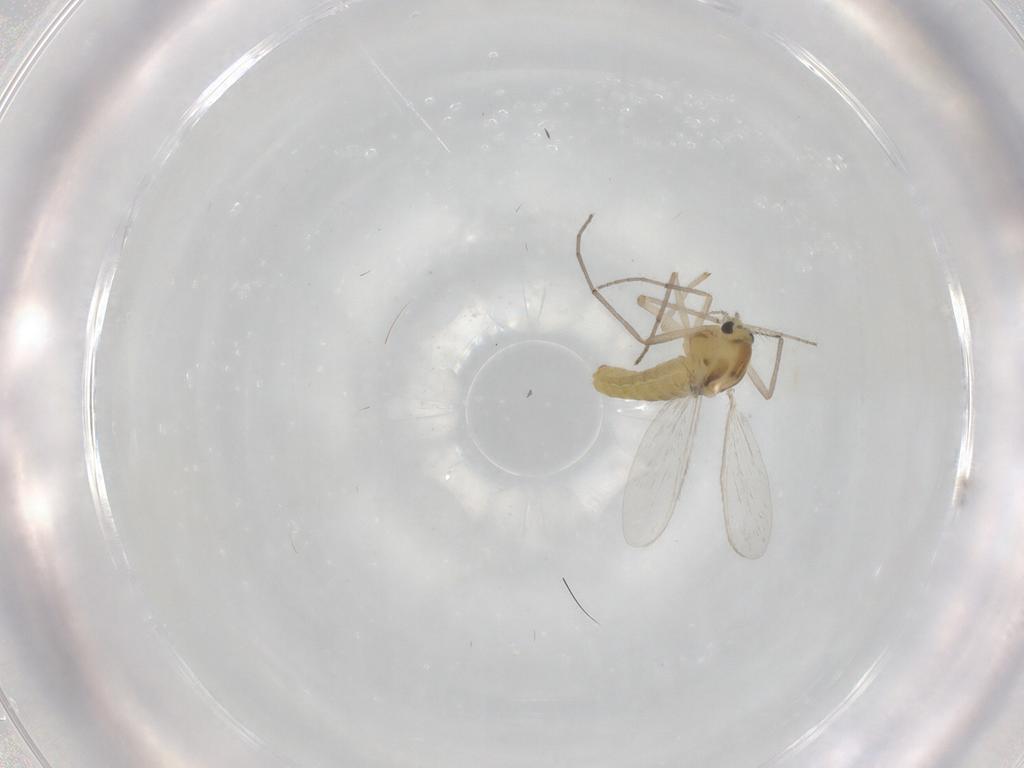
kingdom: Animalia
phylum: Arthropoda
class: Insecta
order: Diptera
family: Chironomidae
